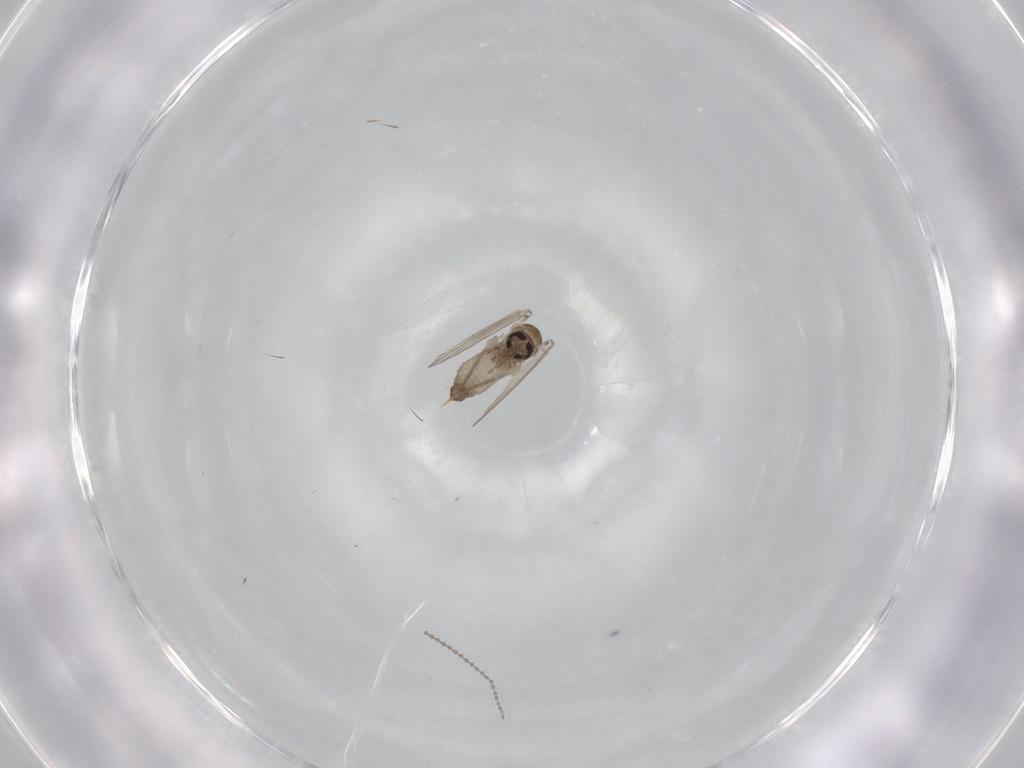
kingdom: Animalia
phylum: Arthropoda
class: Insecta
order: Diptera
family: Psychodidae
